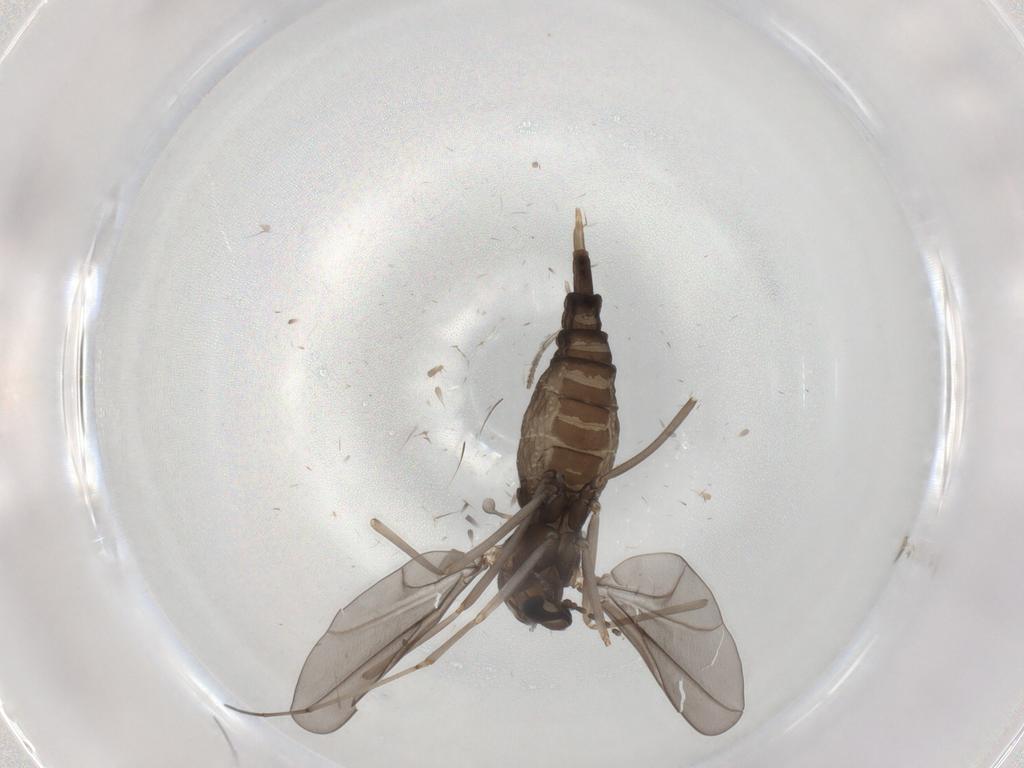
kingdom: Animalia
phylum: Arthropoda
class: Insecta
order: Diptera
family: Cecidomyiidae
